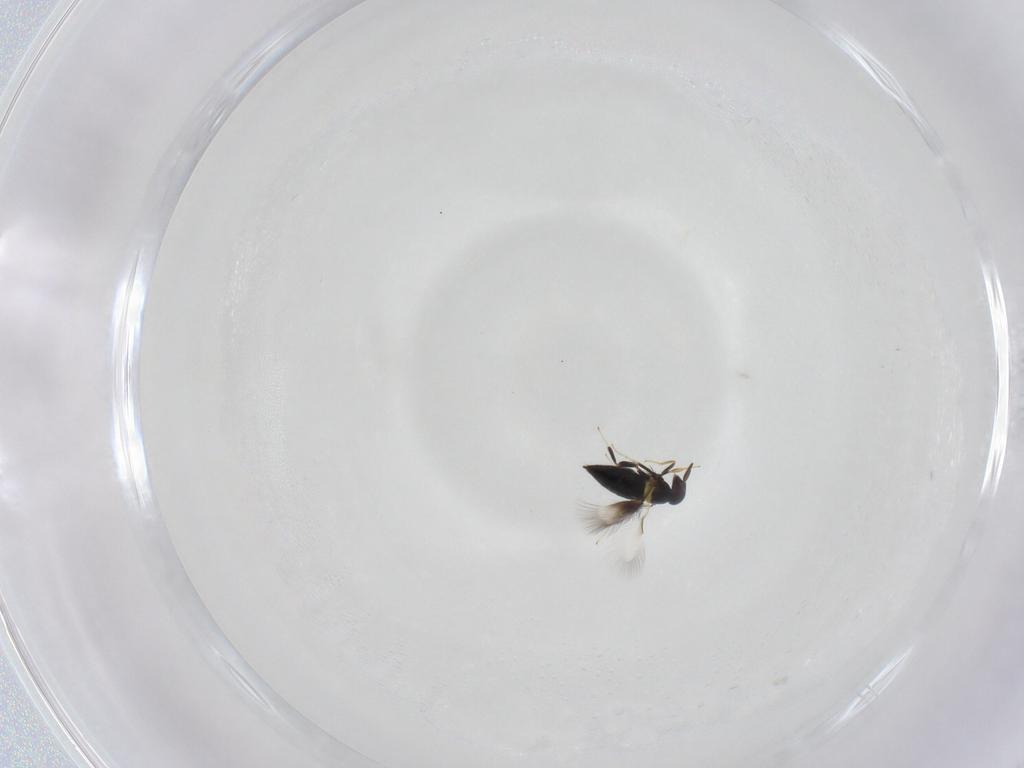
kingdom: Animalia
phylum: Arthropoda
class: Insecta
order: Hymenoptera
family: Signiphoridae
